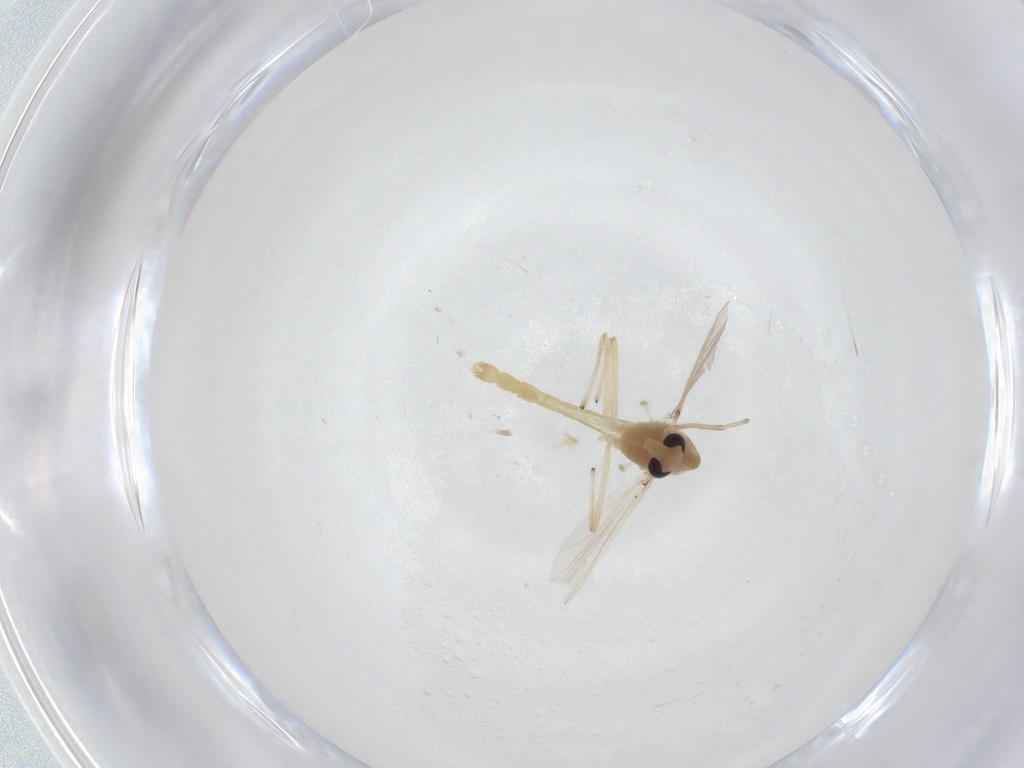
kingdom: Animalia
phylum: Arthropoda
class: Insecta
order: Diptera
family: Chironomidae
